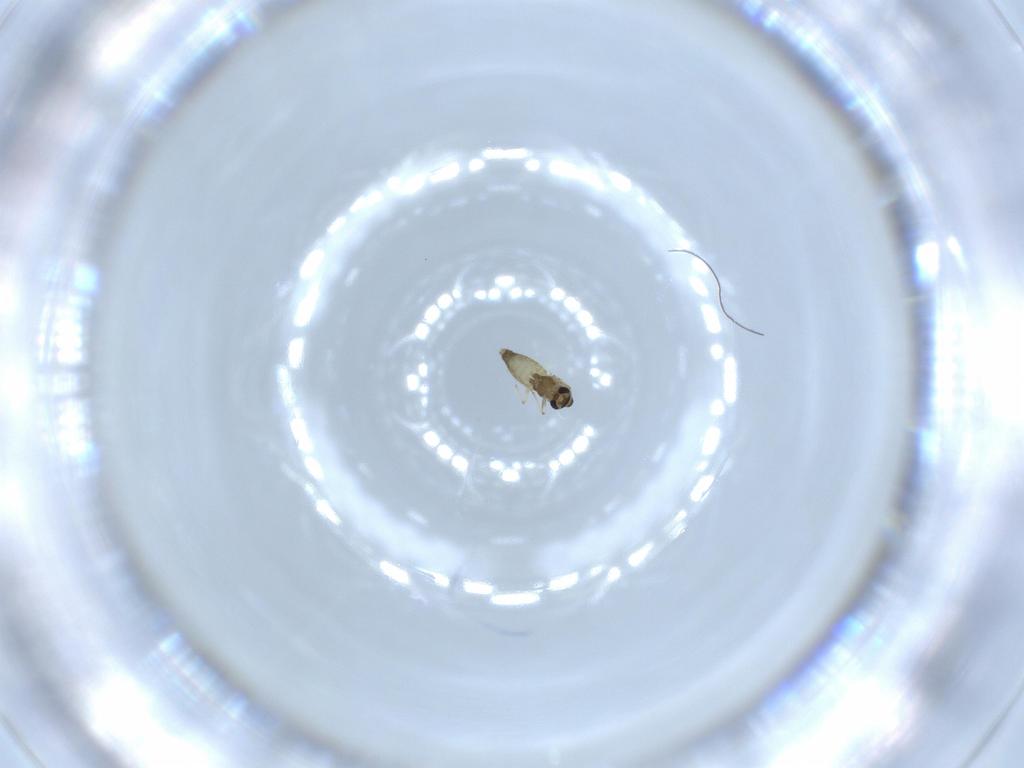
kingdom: Animalia
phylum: Arthropoda
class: Insecta
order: Diptera
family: Chironomidae
